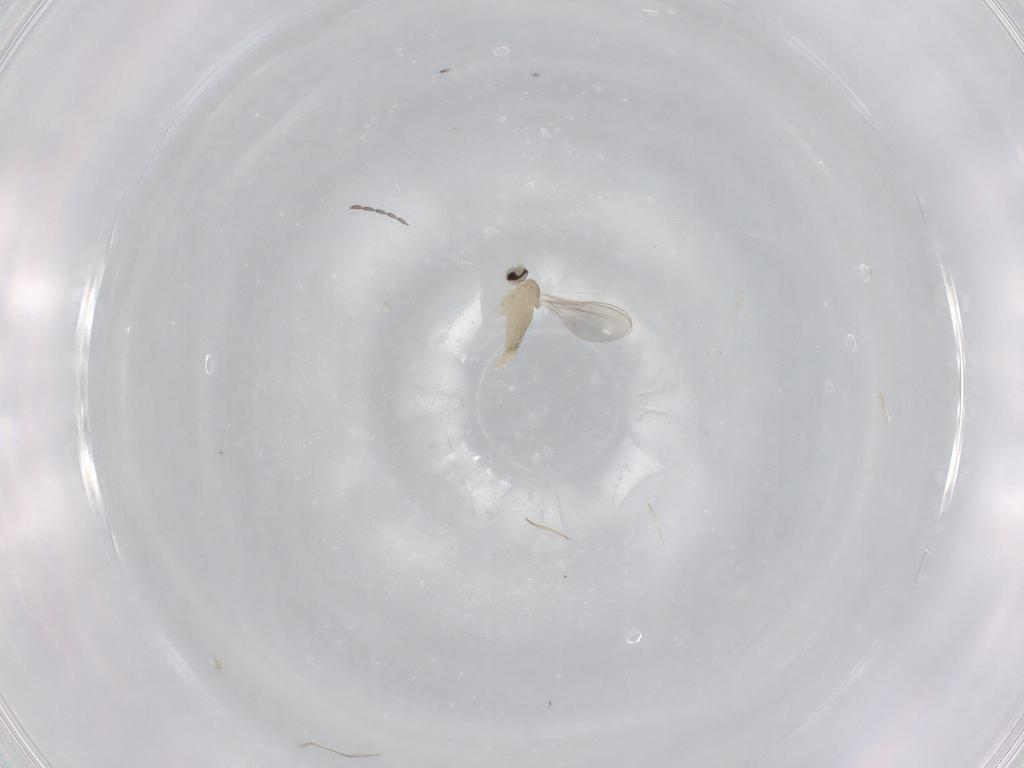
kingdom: Animalia
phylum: Arthropoda
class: Insecta
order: Diptera
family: Cecidomyiidae
